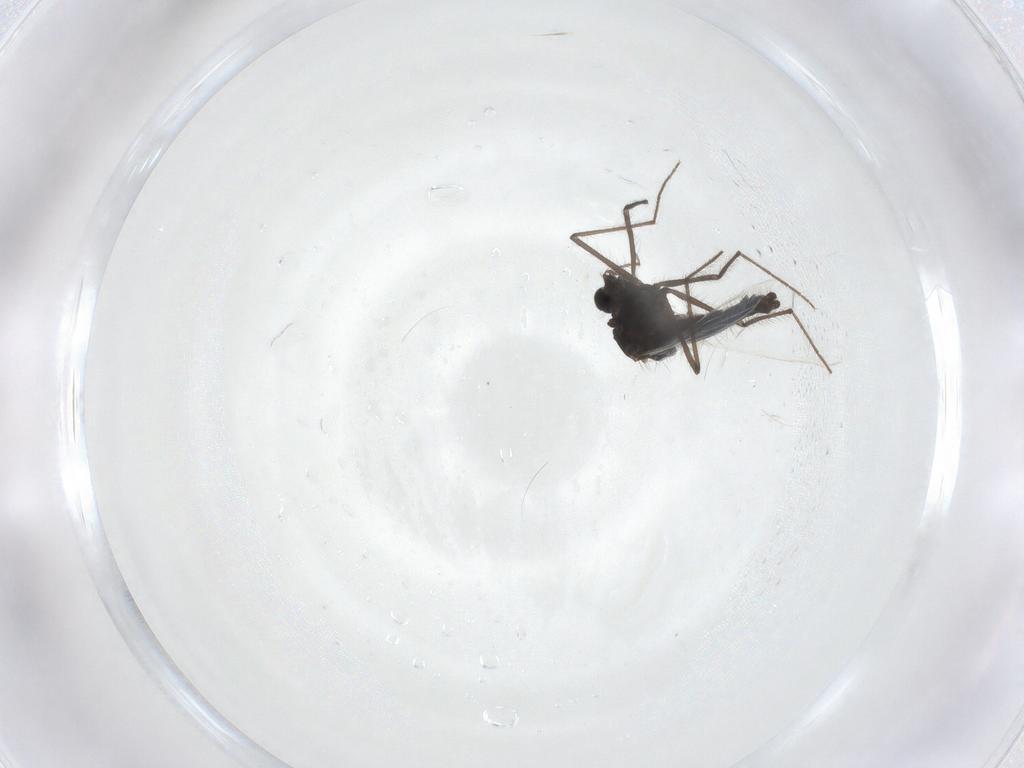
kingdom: Animalia
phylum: Arthropoda
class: Insecta
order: Diptera
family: Chironomidae
